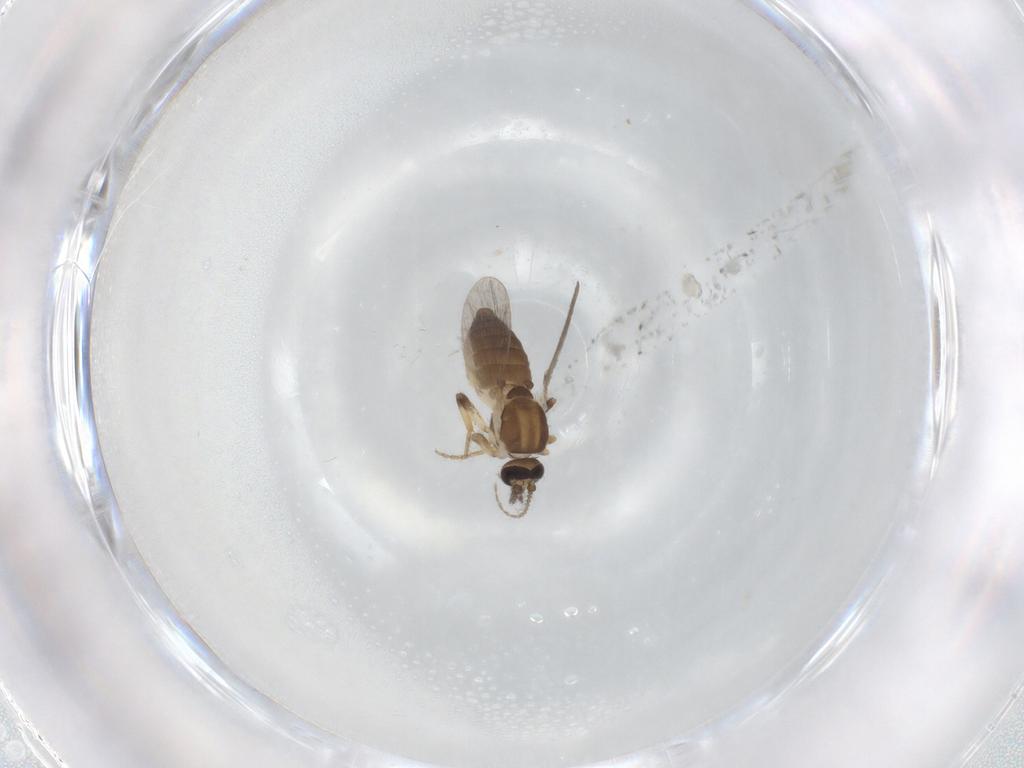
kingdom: Animalia
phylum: Arthropoda
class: Insecta
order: Diptera
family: Ceratopogonidae
